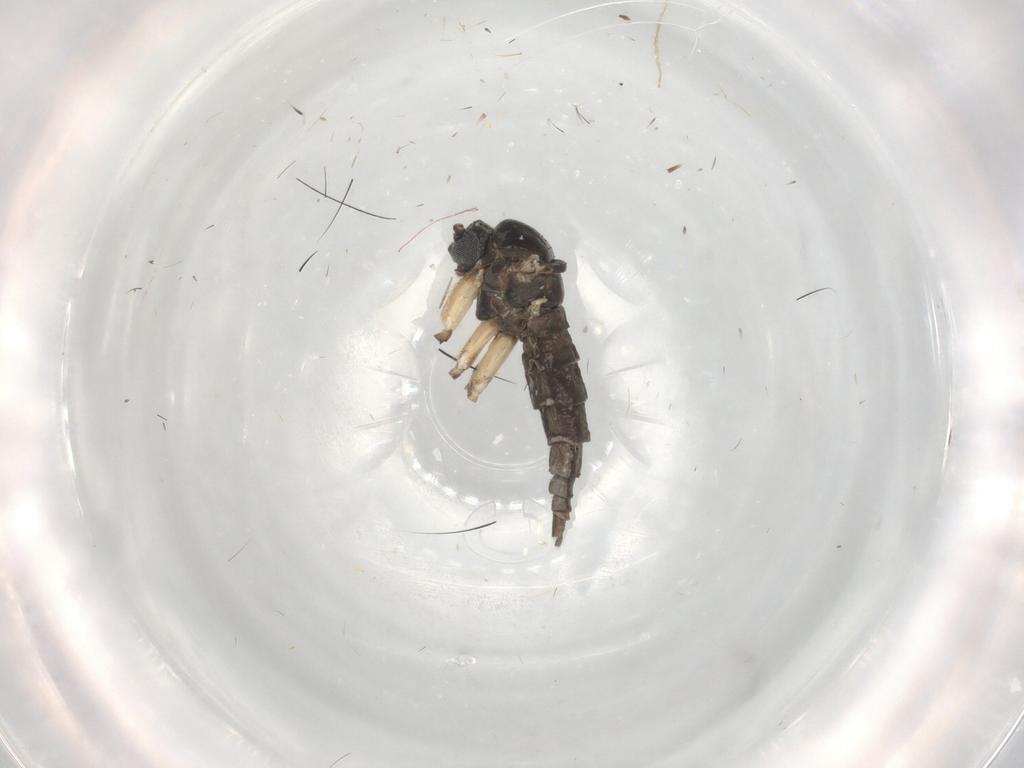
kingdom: Animalia
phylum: Arthropoda
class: Insecta
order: Diptera
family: Sciaridae
